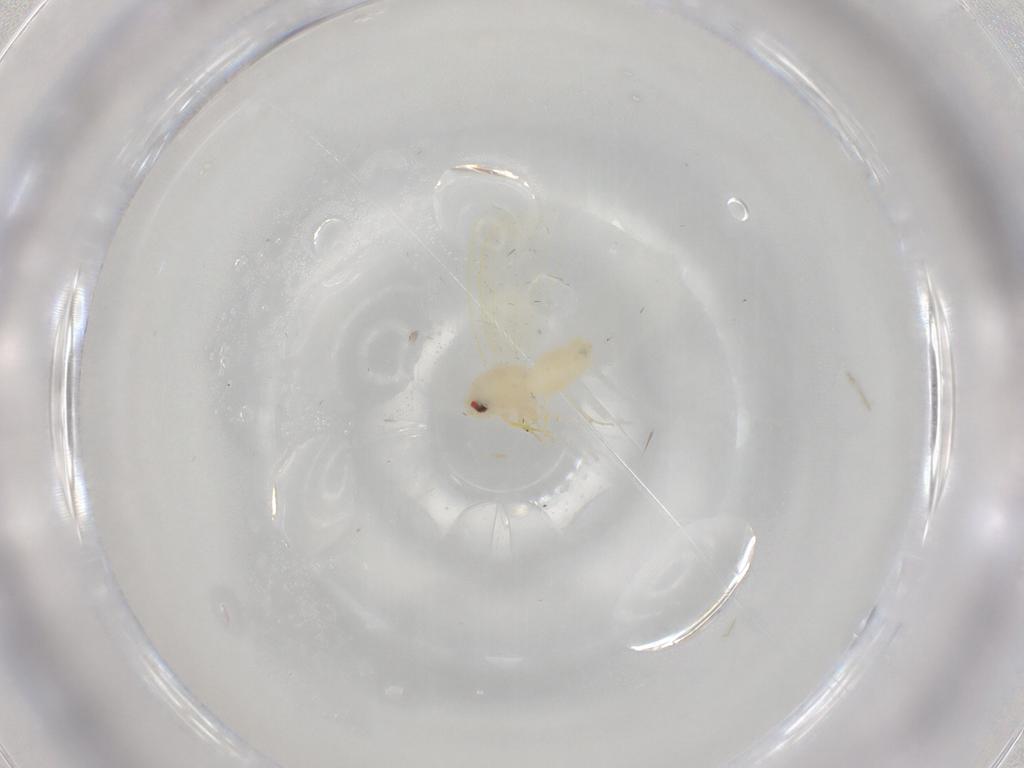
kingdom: Animalia
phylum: Arthropoda
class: Insecta
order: Hemiptera
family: Aleyrodidae
